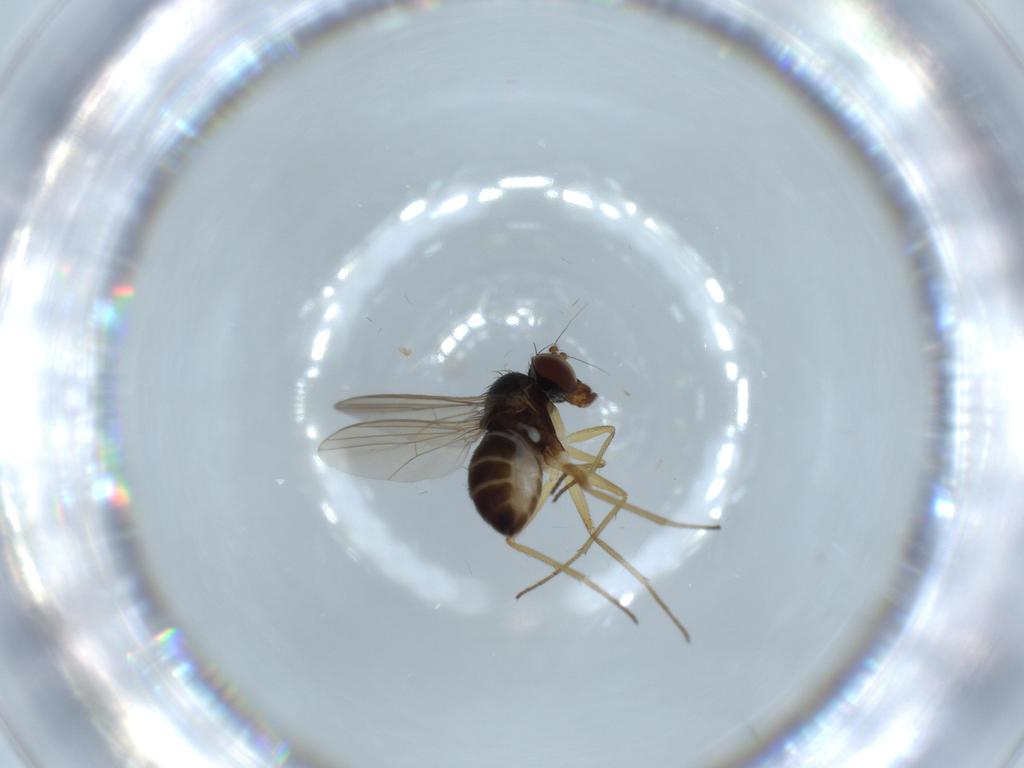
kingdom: Animalia
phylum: Arthropoda
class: Insecta
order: Diptera
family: Dolichopodidae
